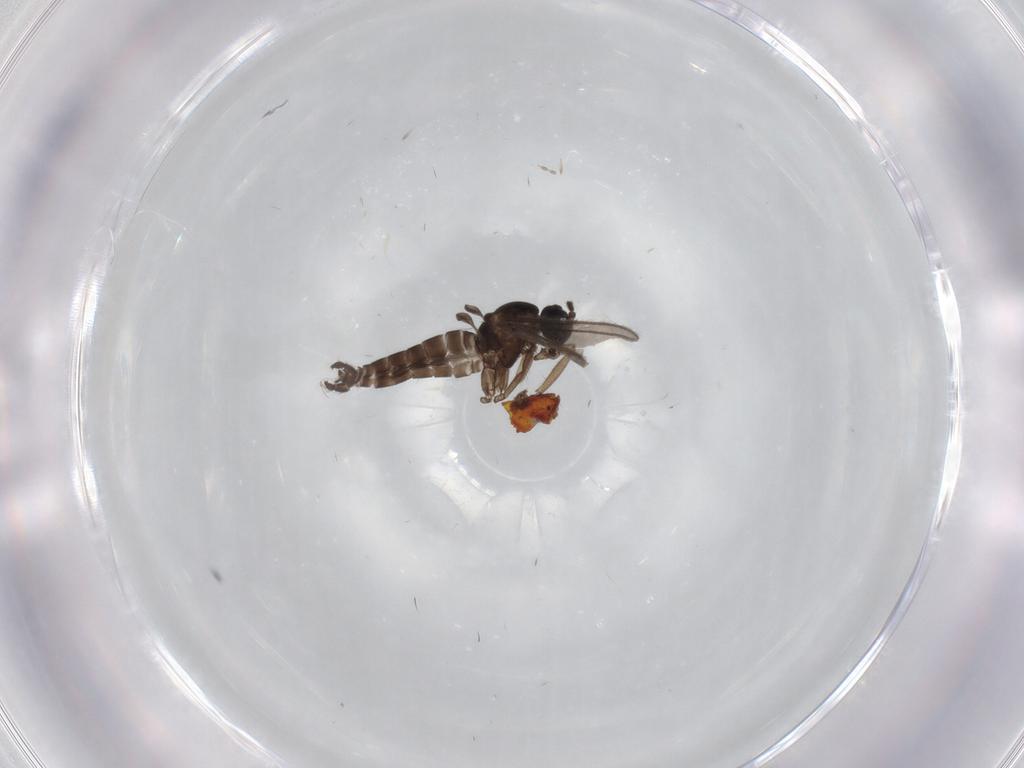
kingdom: Animalia
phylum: Arthropoda
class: Insecta
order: Diptera
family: Sciaridae
